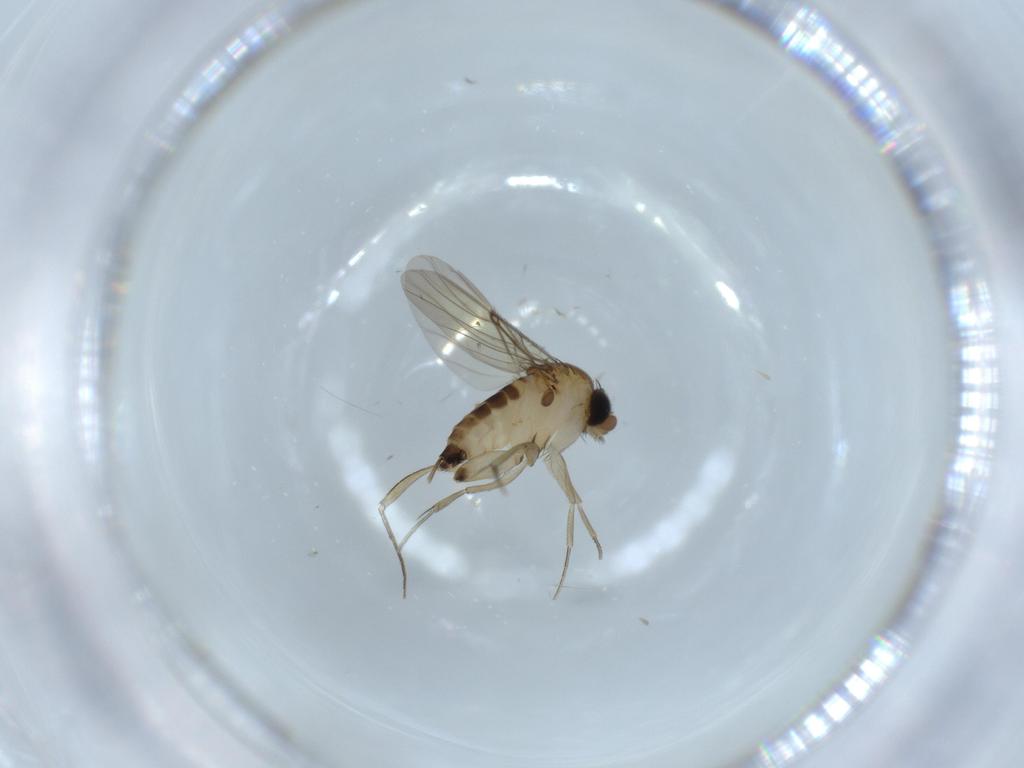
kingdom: Animalia
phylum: Arthropoda
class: Insecta
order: Diptera
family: Phoridae
